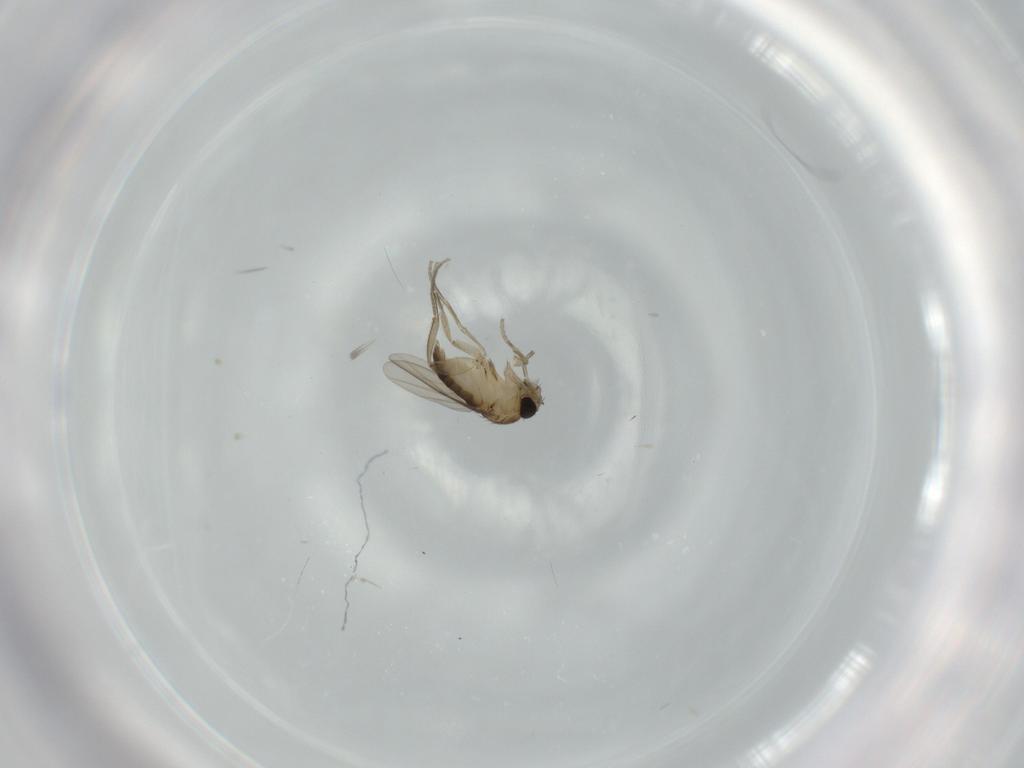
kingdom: Animalia
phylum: Arthropoda
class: Insecta
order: Diptera
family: Phoridae
